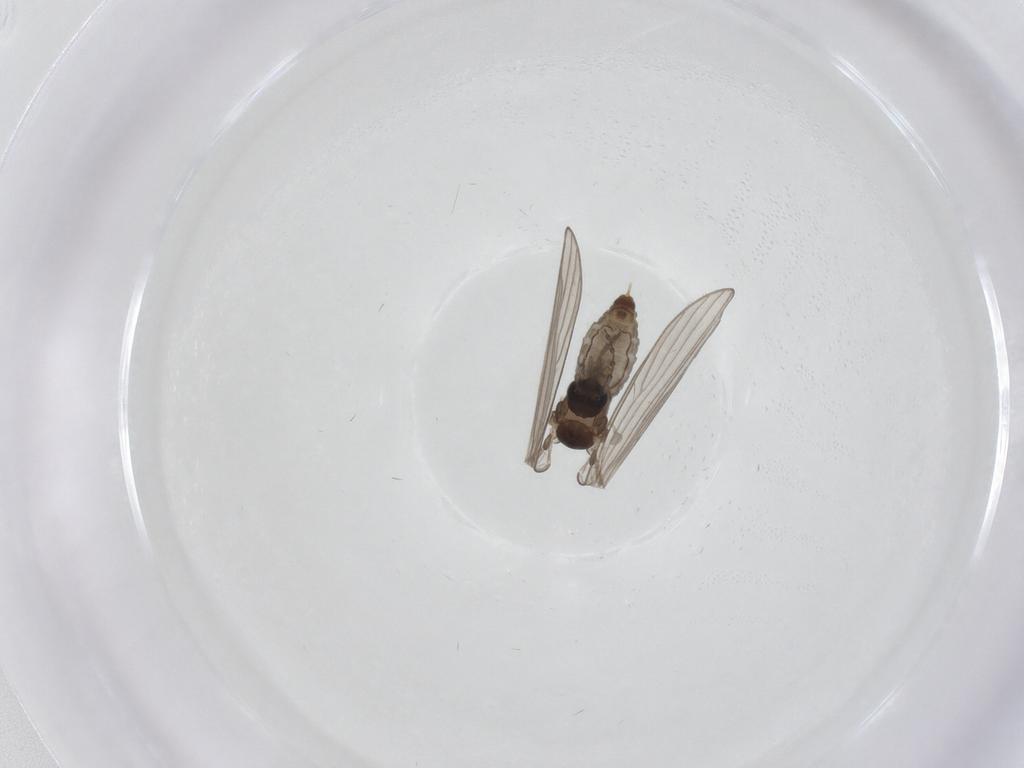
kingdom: Animalia
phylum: Arthropoda
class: Insecta
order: Diptera
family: Psychodidae
